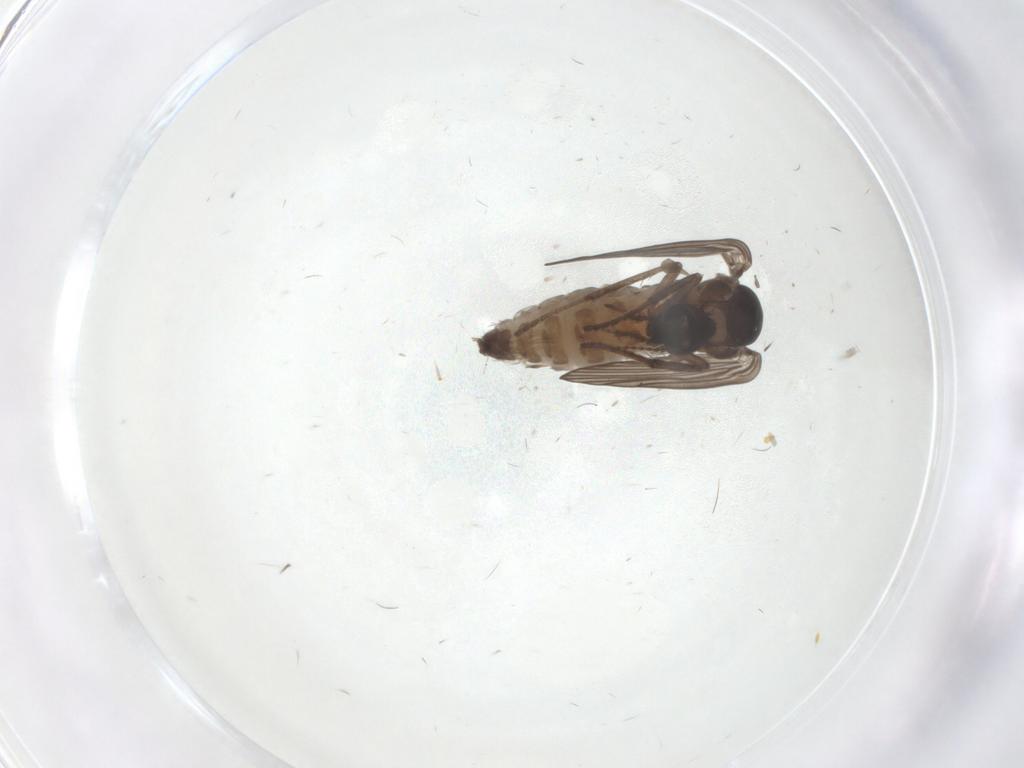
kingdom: Animalia
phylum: Arthropoda
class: Insecta
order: Diptera
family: Psychodidae
